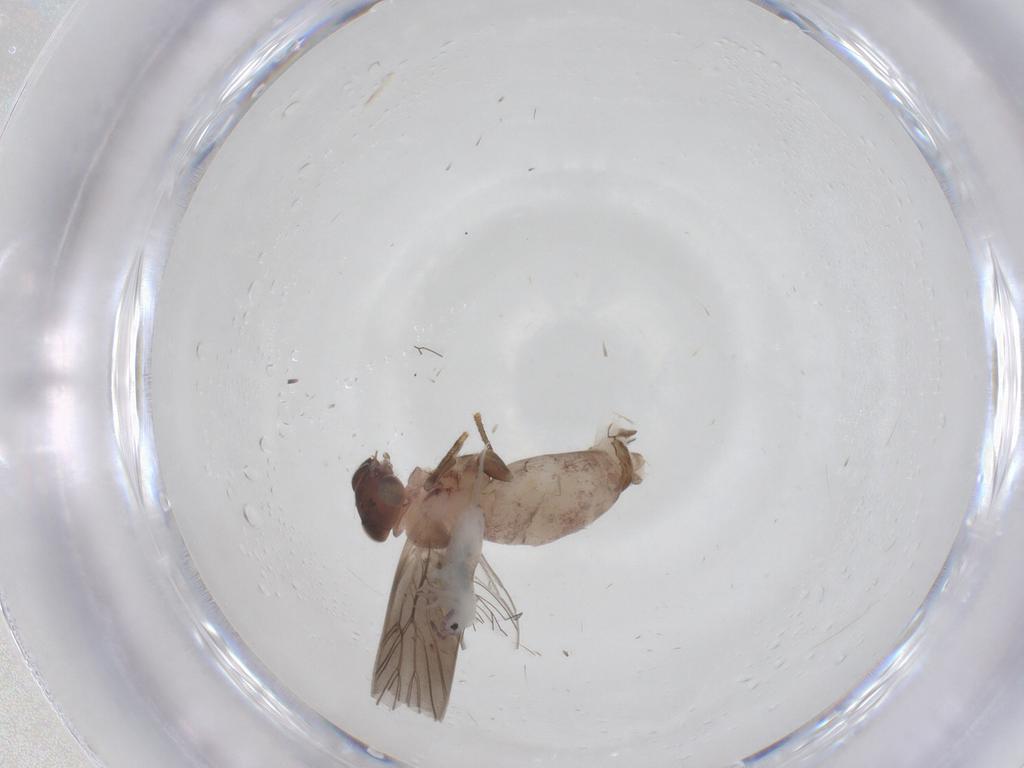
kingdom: Animalia
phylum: Arthropoda
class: Insecta
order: Psocodea
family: Lepidopsocidae
